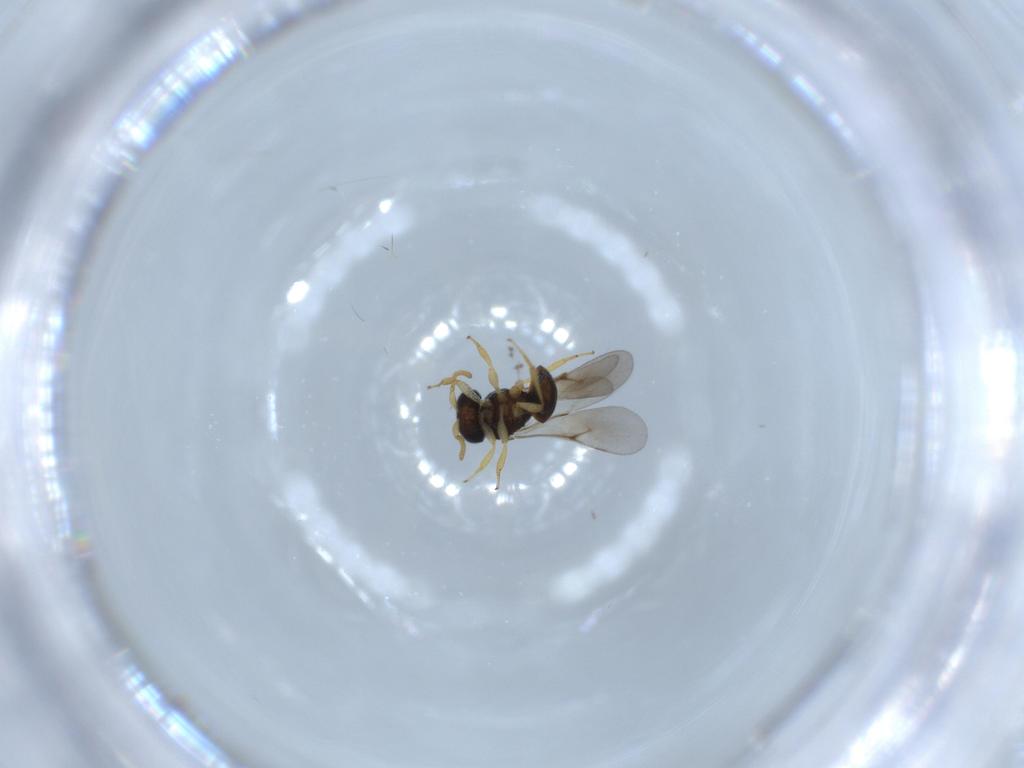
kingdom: Animalia
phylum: Arthropoda
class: Insecta
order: Hymenoptera
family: Scelionidae
